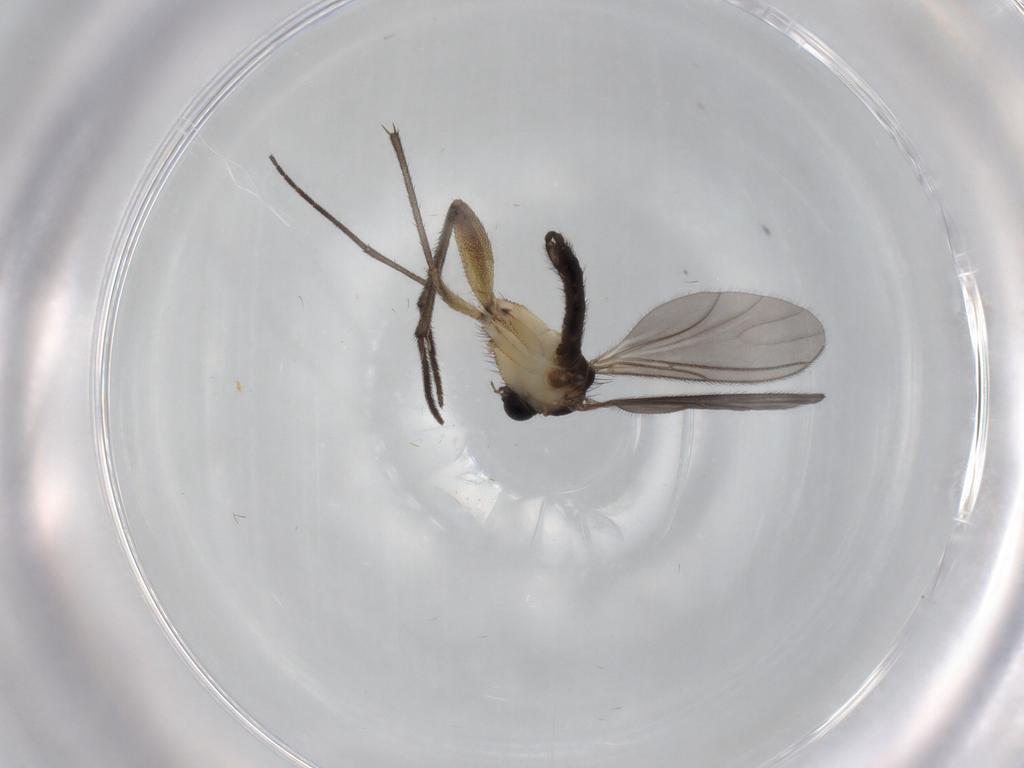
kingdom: Animalia
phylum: Arthropoda
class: Insecta
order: Diptera
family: Sciaridae
